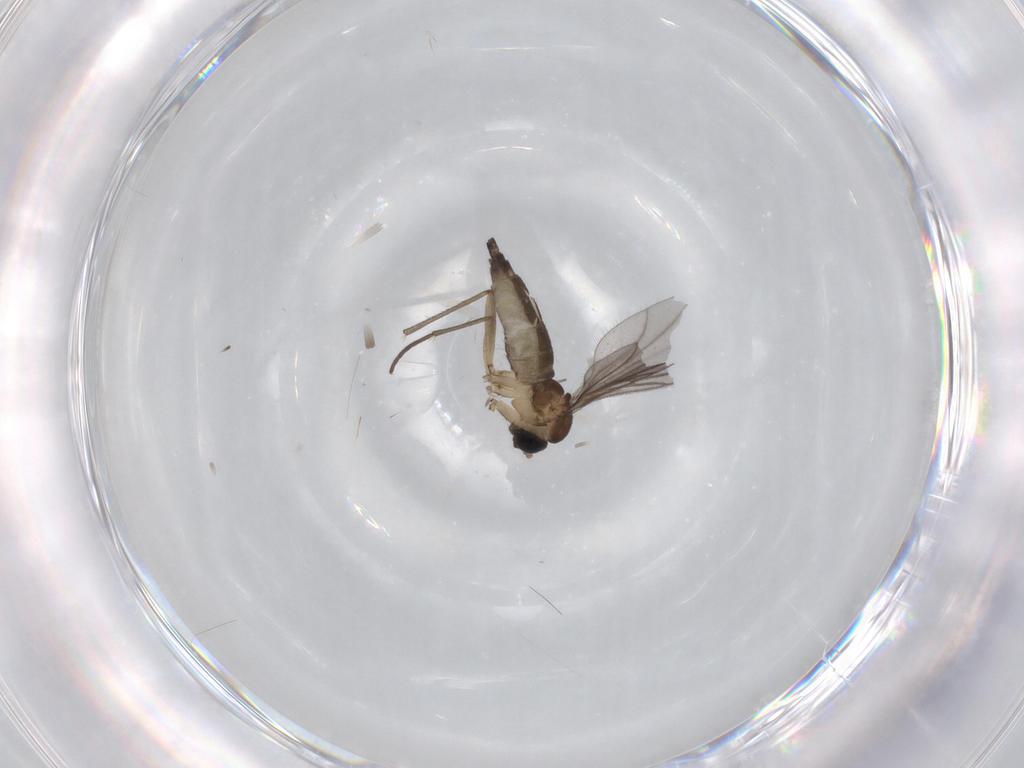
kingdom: Animalia
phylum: Arthropoda
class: Insecta
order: Diptera
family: Sciaridae
